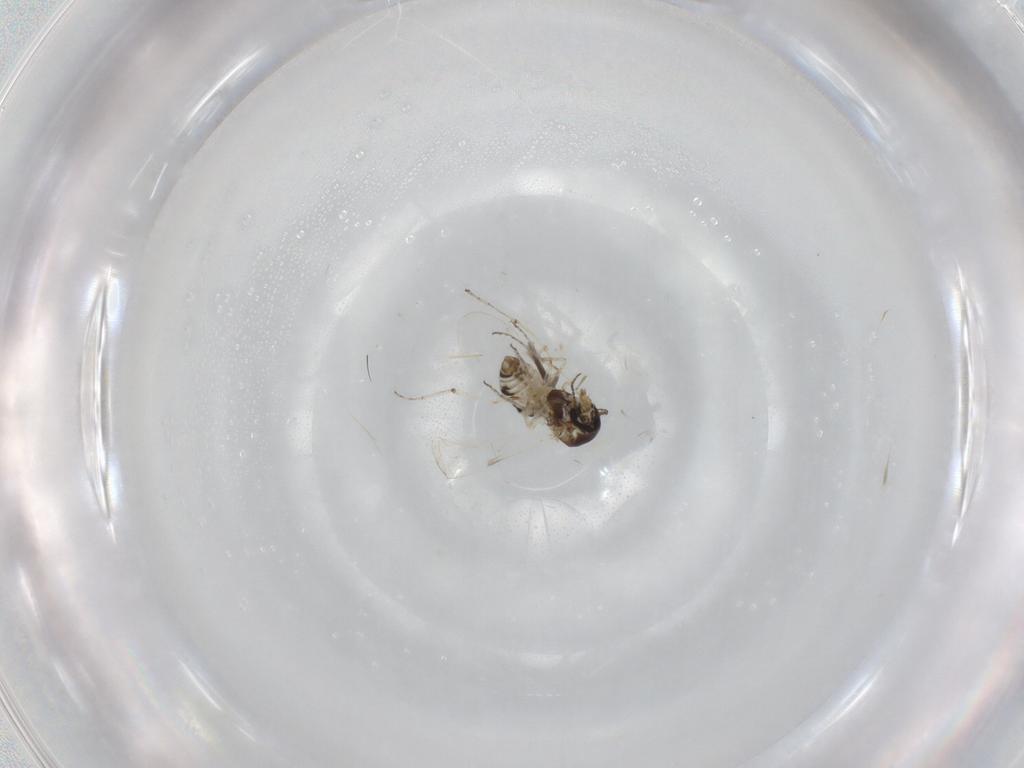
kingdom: Animalia
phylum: Arthropoda
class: Insecta
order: Diptera
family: Ceratopogonidae
